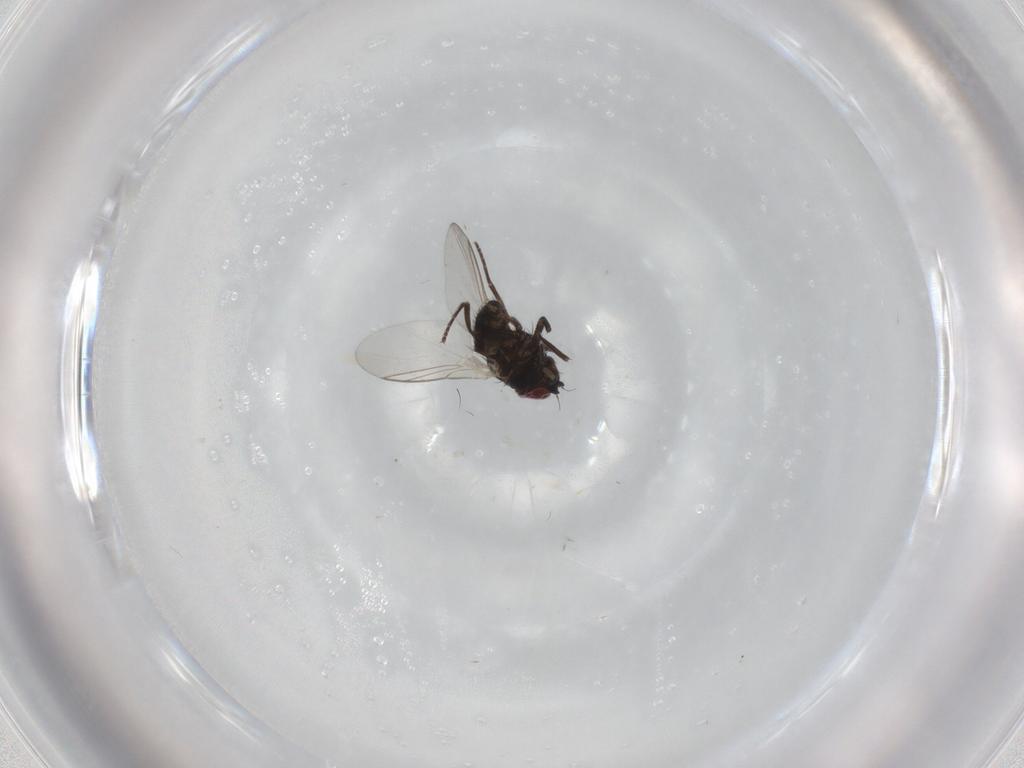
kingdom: Animalia
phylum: Arthropoda
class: Insecta
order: Diptera
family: Agromyzidae
